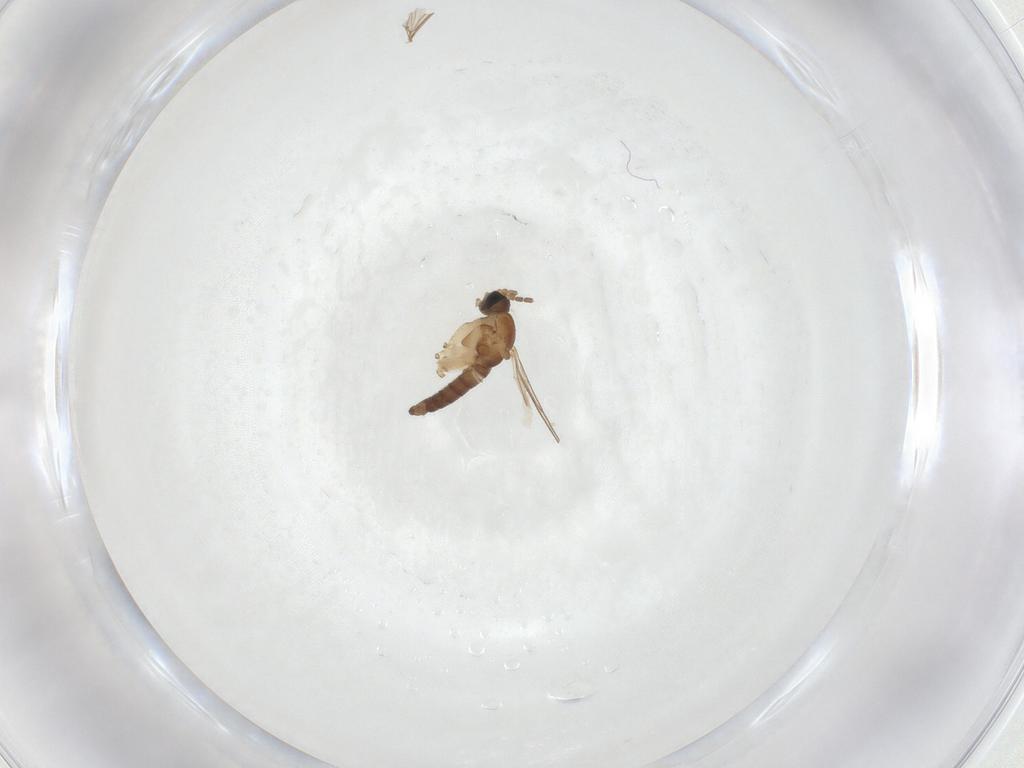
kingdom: Animalia
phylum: Arthropoda
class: Insecta
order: Diptera
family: Sciaridae
